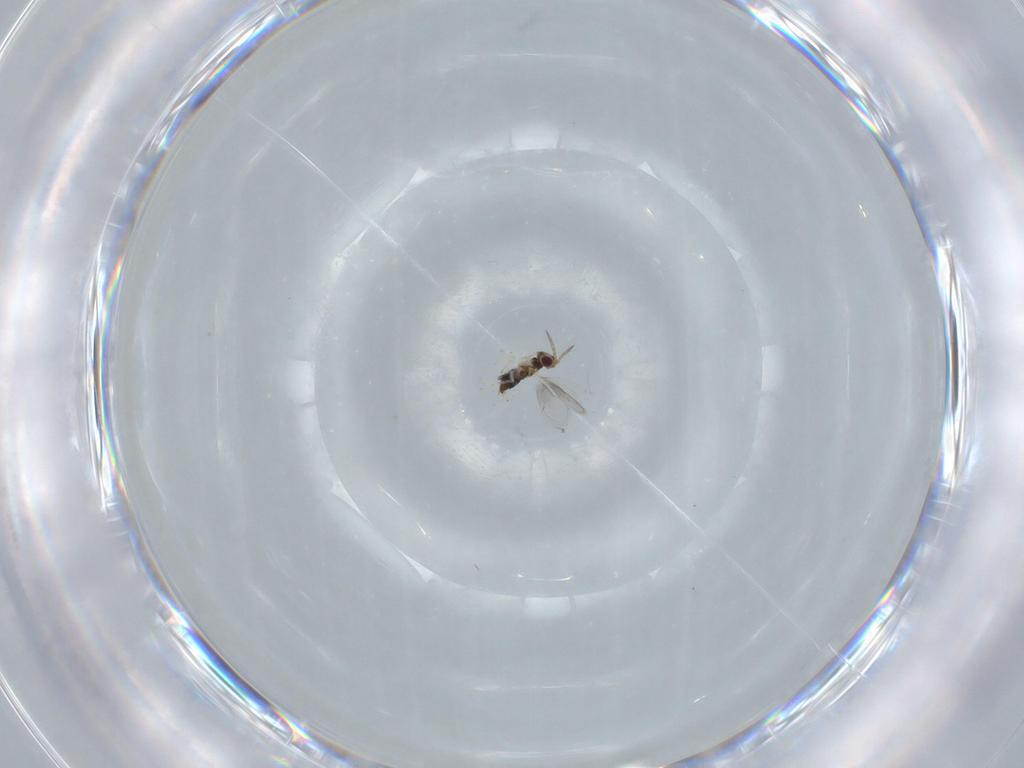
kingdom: Animalia
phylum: Arthropoda
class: Insecta
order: Hymenoptera
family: Aphelinidae
